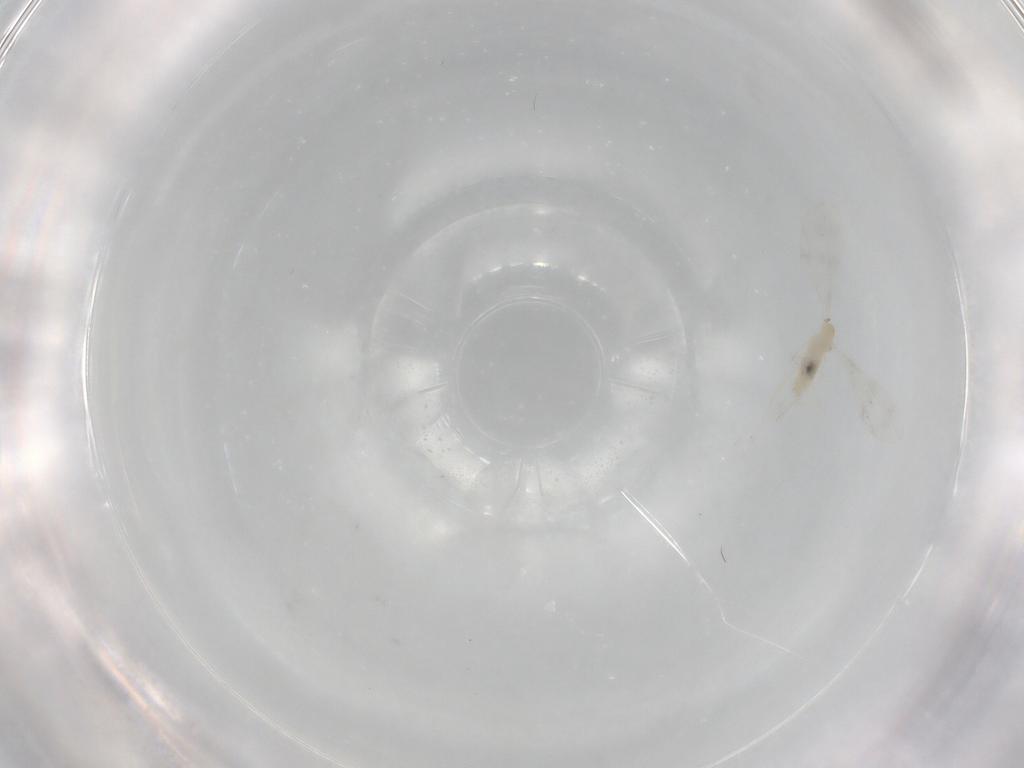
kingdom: Animalia
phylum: Arthropoda
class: Insecta
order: Diptera
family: Cecidomyiidae
